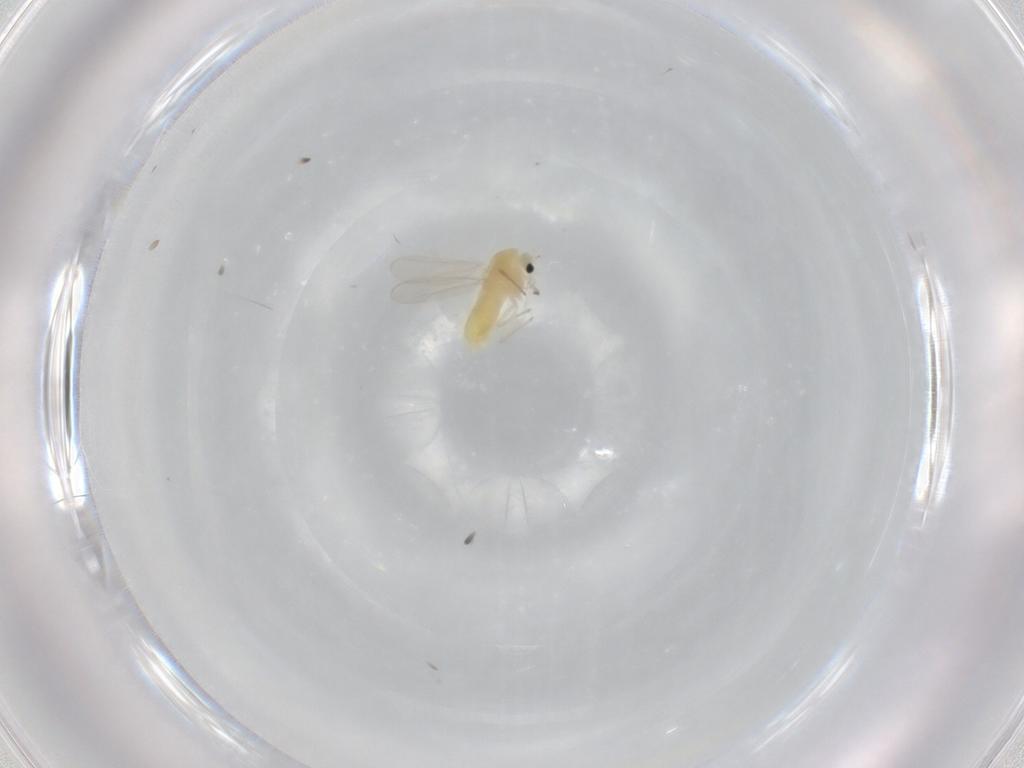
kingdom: Animalia
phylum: Arthropoda
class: Insecta
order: Diptera
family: Chironomidae
